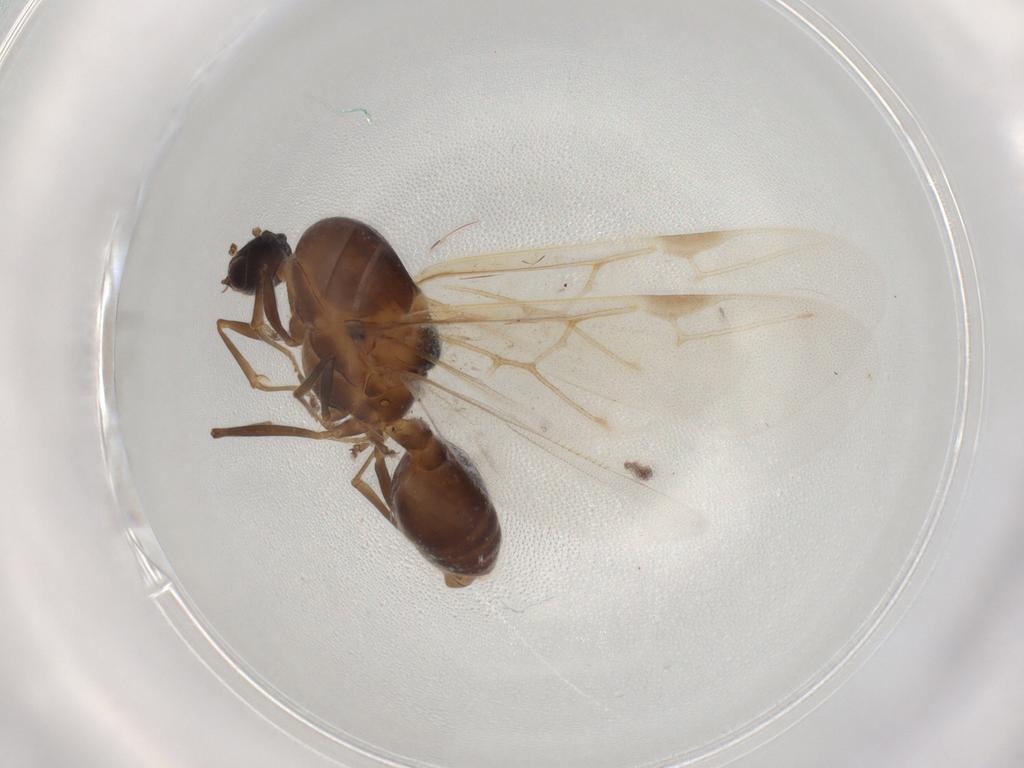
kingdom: Animalia
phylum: Arthropoda
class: Insecta
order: Hymenoptera
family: Formicidae
